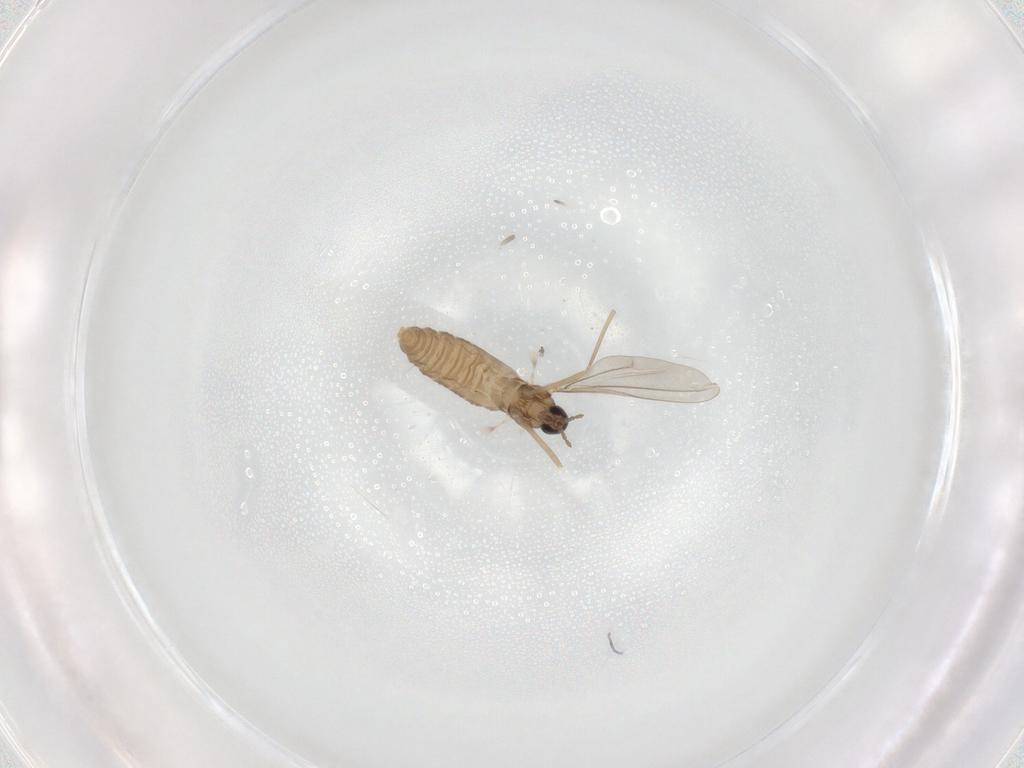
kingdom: Animalia
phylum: Arthropoda
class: Insecta
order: Diptera
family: Cecidomyiidae
